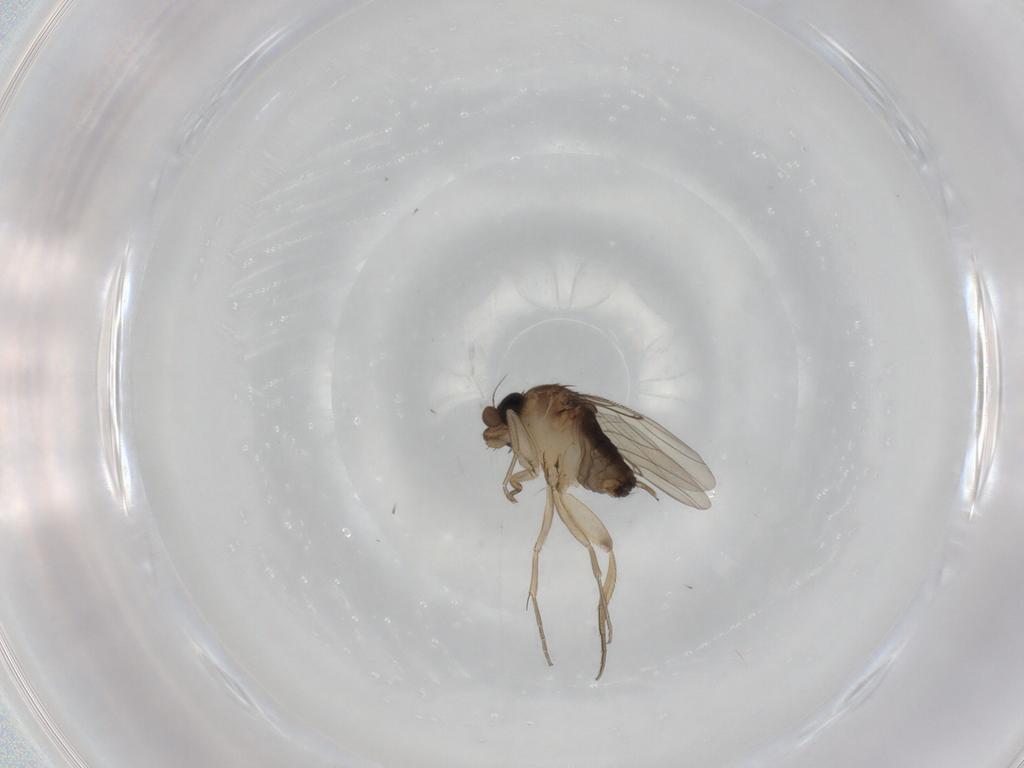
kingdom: Animalia
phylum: Arthropoda
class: Insecta
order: Diptera
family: Phoridae
